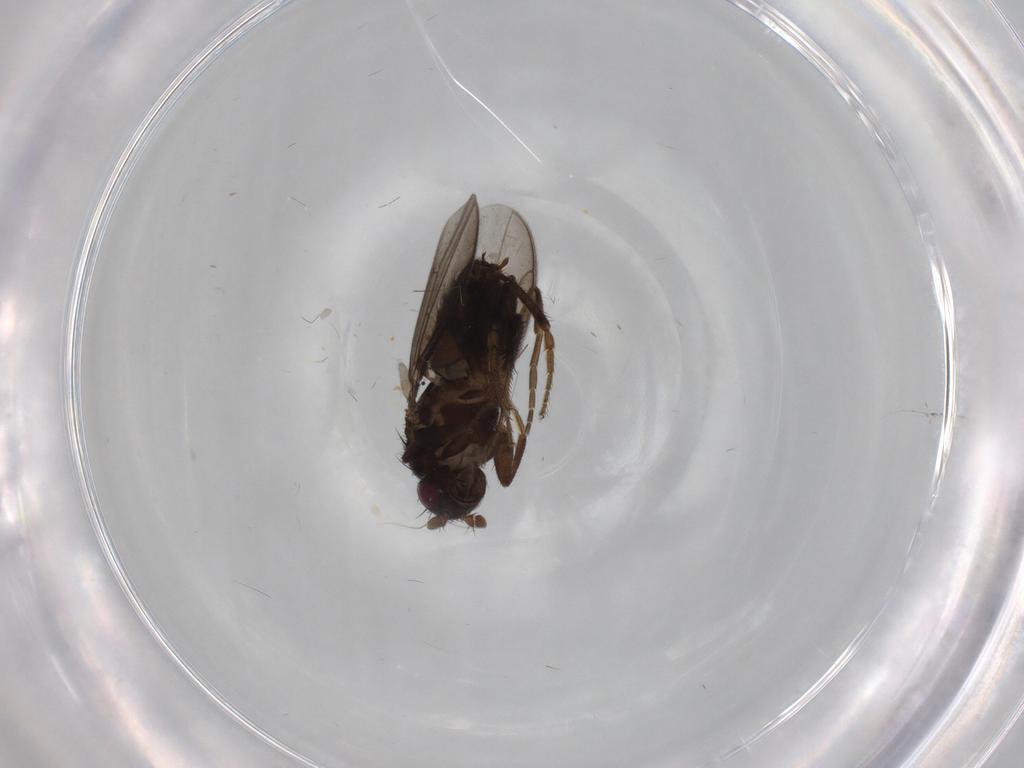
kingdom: Animalia
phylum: Arthropoda
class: Insecta
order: Diptera
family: Sphaeroceridae
